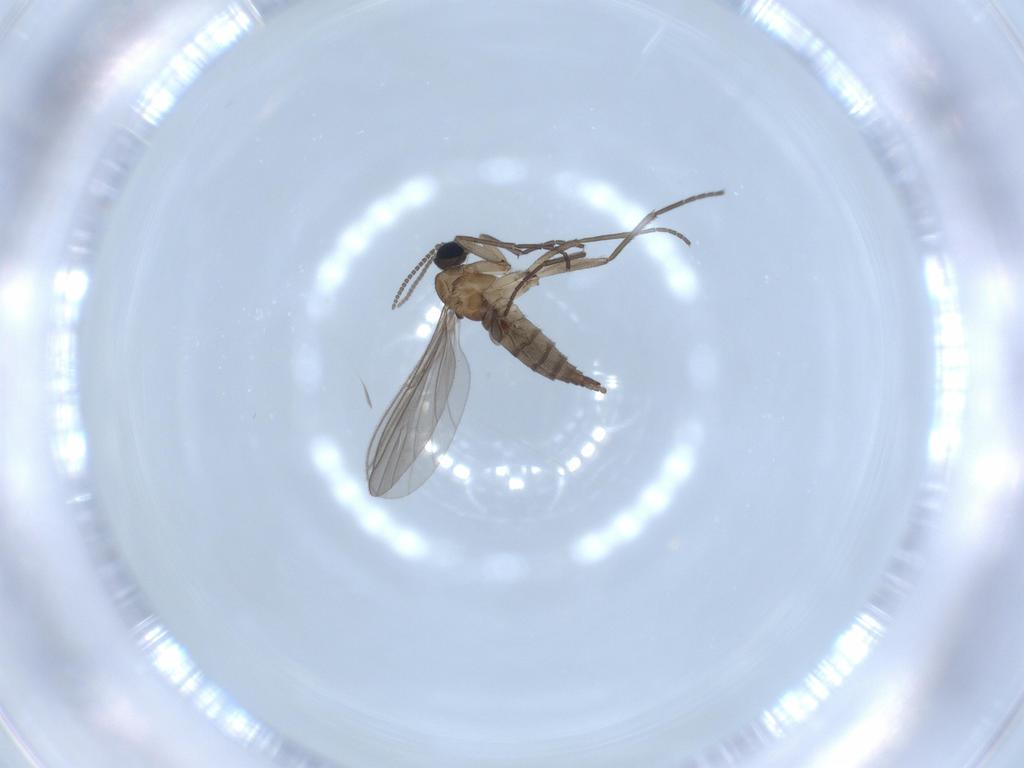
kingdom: Animalia
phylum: Arthropoda
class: Insecta
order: Diptera
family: Sciaridae
